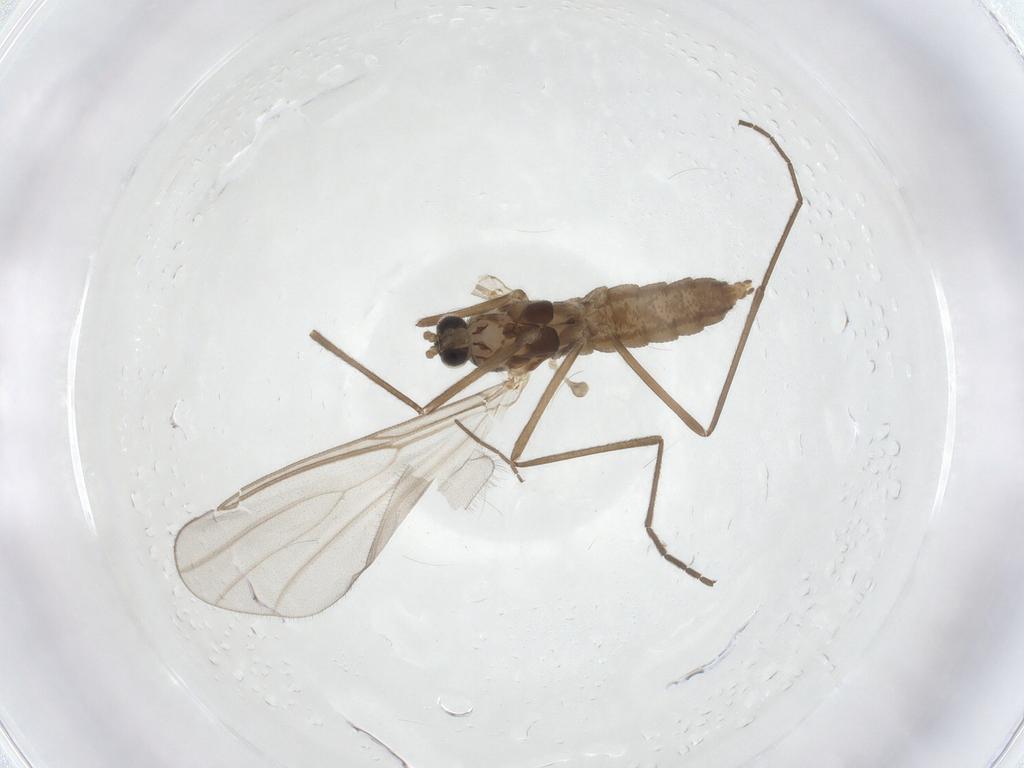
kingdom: Animalia
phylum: Arthropoda
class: Insecta
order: Diptera
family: Cecidomyiidae
